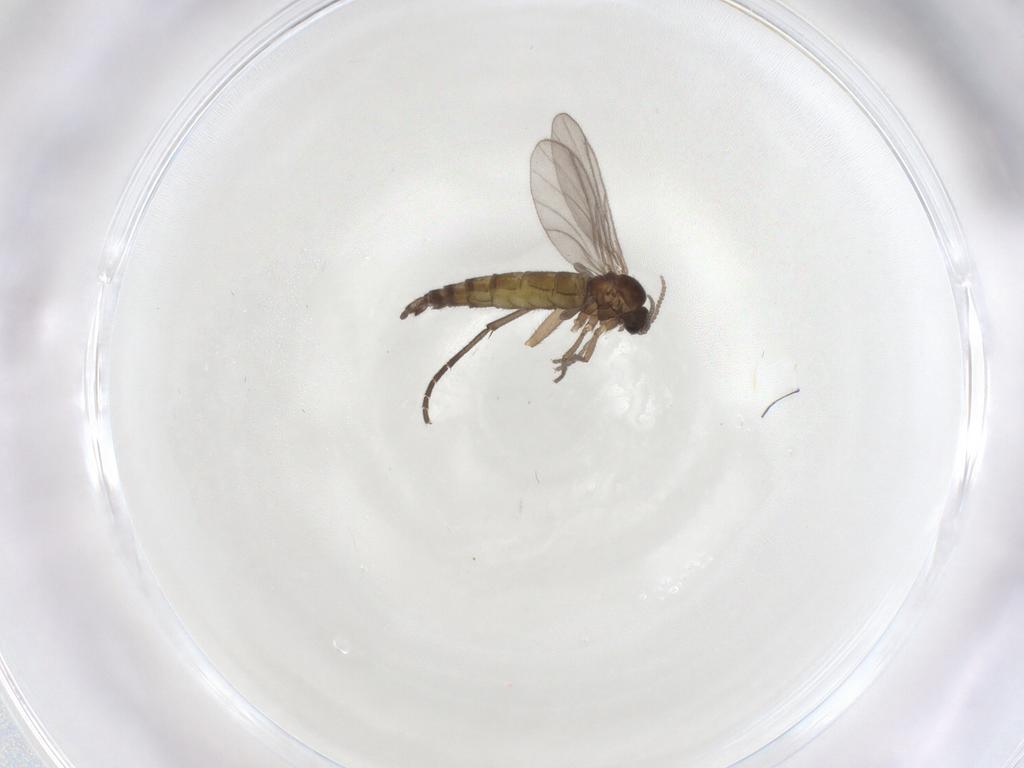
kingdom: Animalia
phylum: Arthropoda
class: Insecta
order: Diptera
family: Sciaridae
